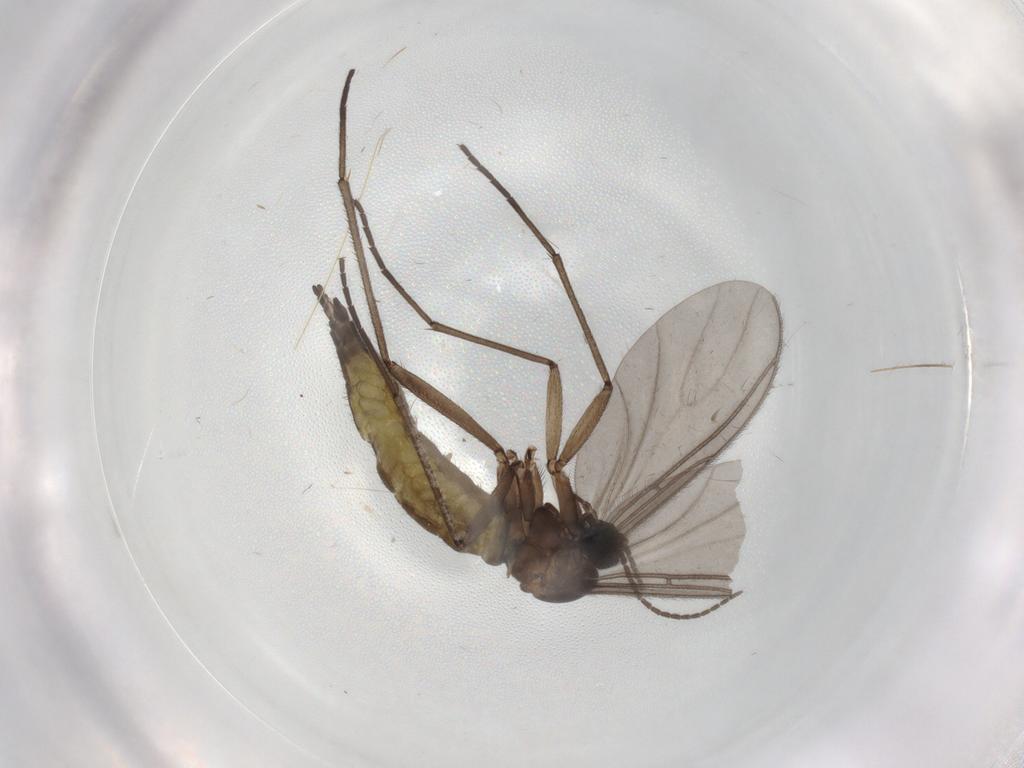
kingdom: Animalia
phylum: Arthropoda
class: Insecta
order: Diptera
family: Sciaridae
